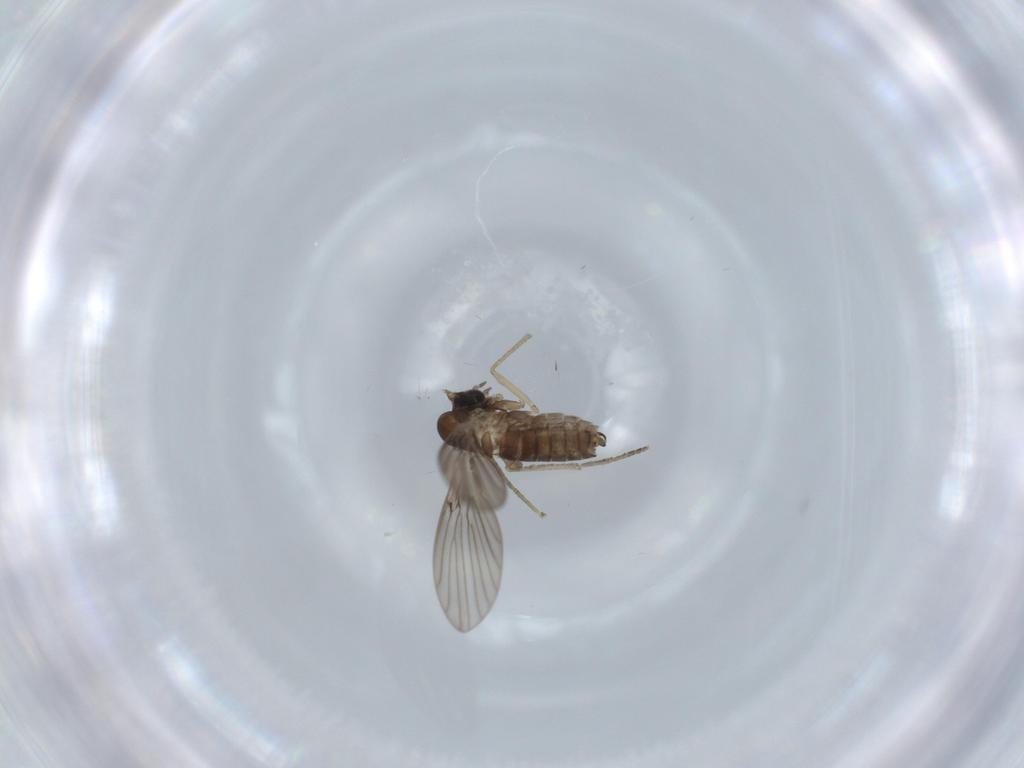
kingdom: Animalia
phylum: Arthropoda
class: Insecta
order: Diptera
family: Psychodidae
